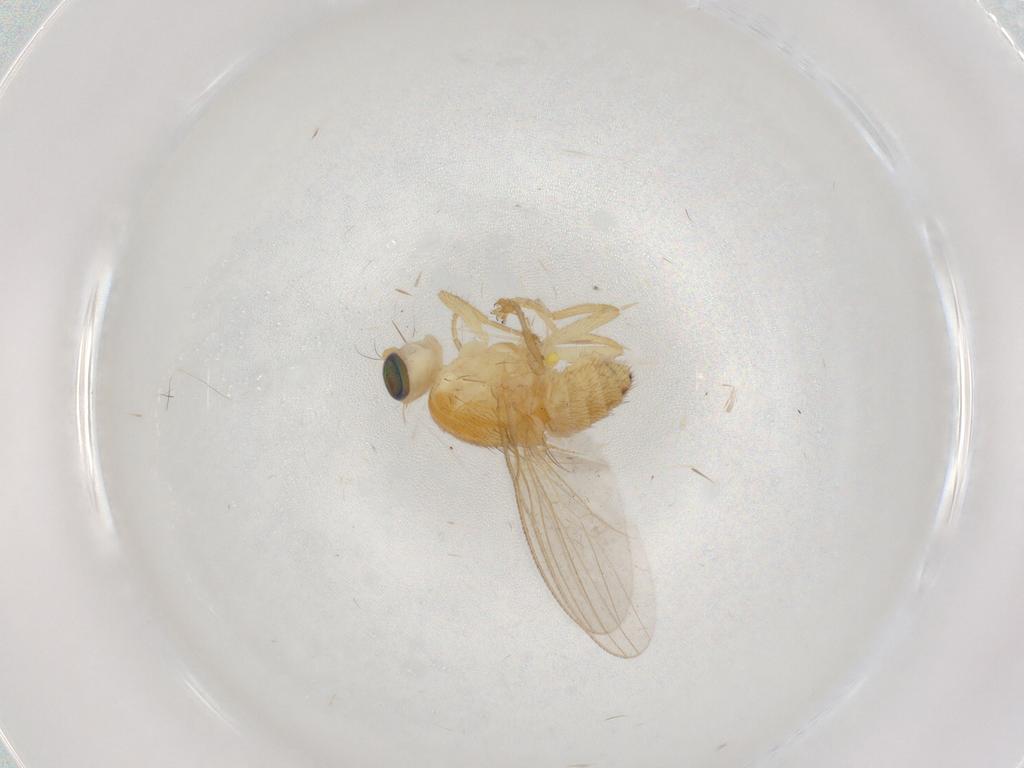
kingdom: Animalia
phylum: Arthropoda
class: Insecta
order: Diptera
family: Chyromyidae
